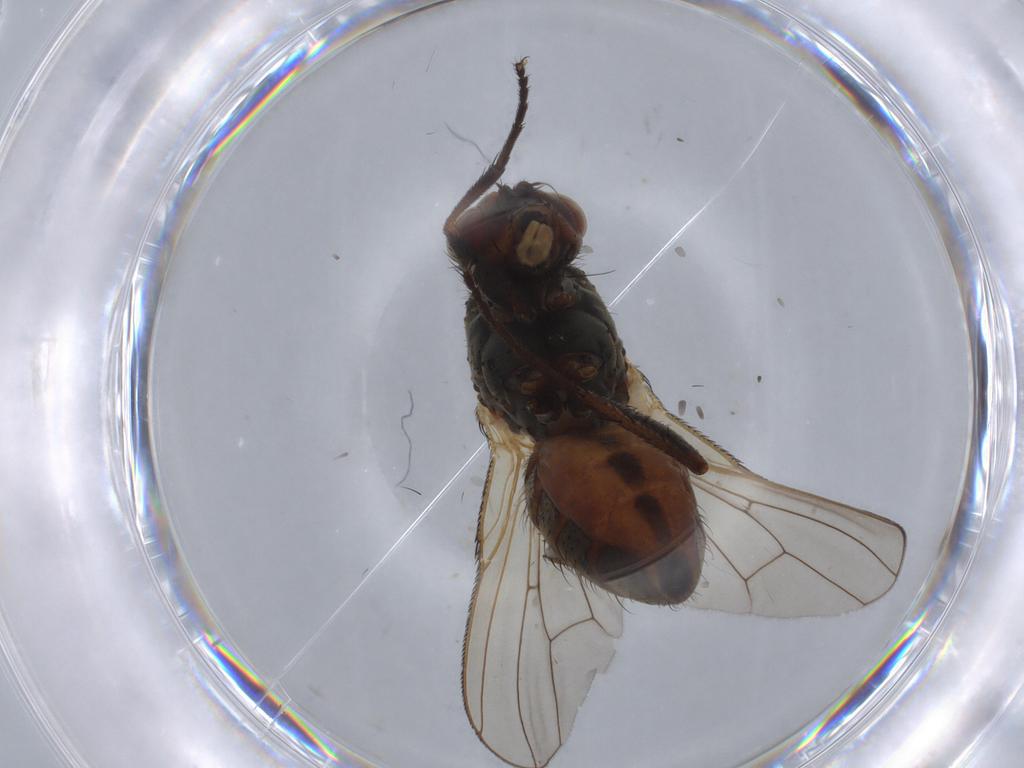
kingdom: Animalia
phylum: Arthropoda
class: Insecta
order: Diptera
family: Anthomyiidae
